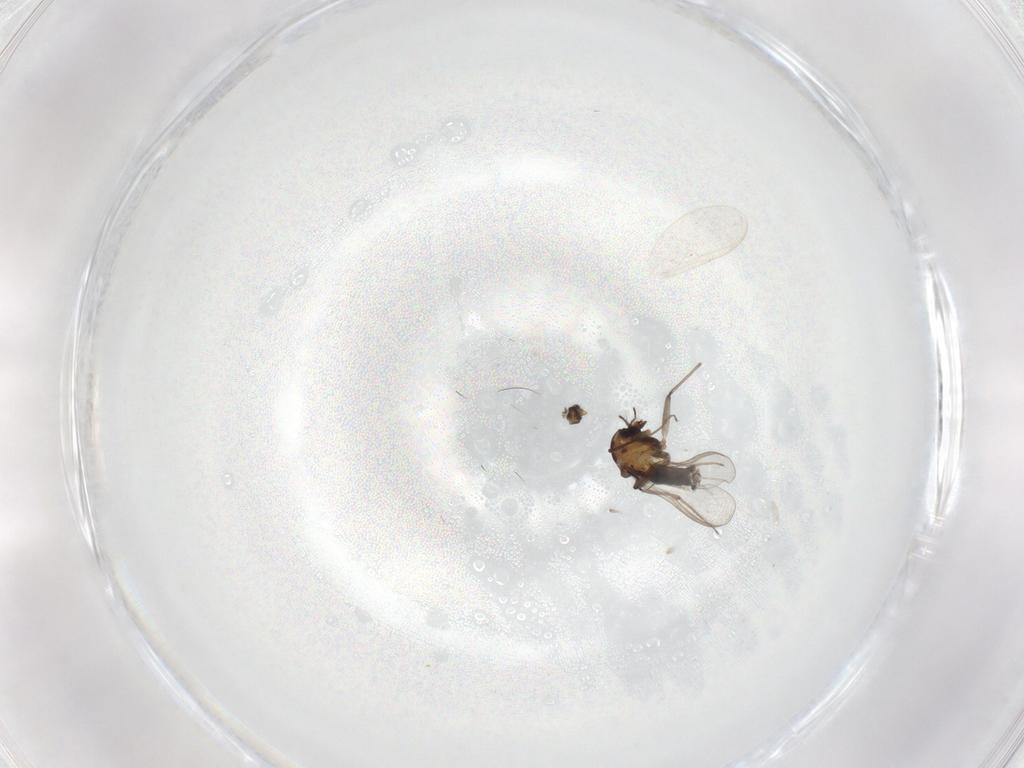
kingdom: Animalia
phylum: Arthropoda
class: Insecta
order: Diptera
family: Chironomidae
